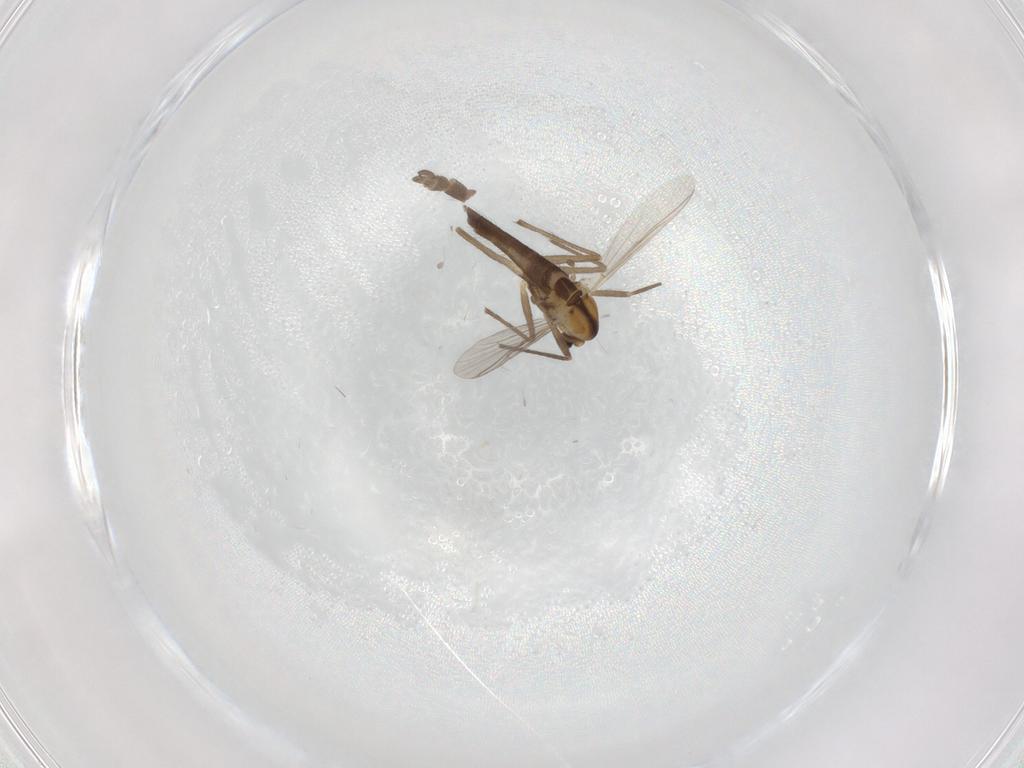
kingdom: Animalia
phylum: Arthropoda
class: Insecta
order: Diptera
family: Chironomidae
